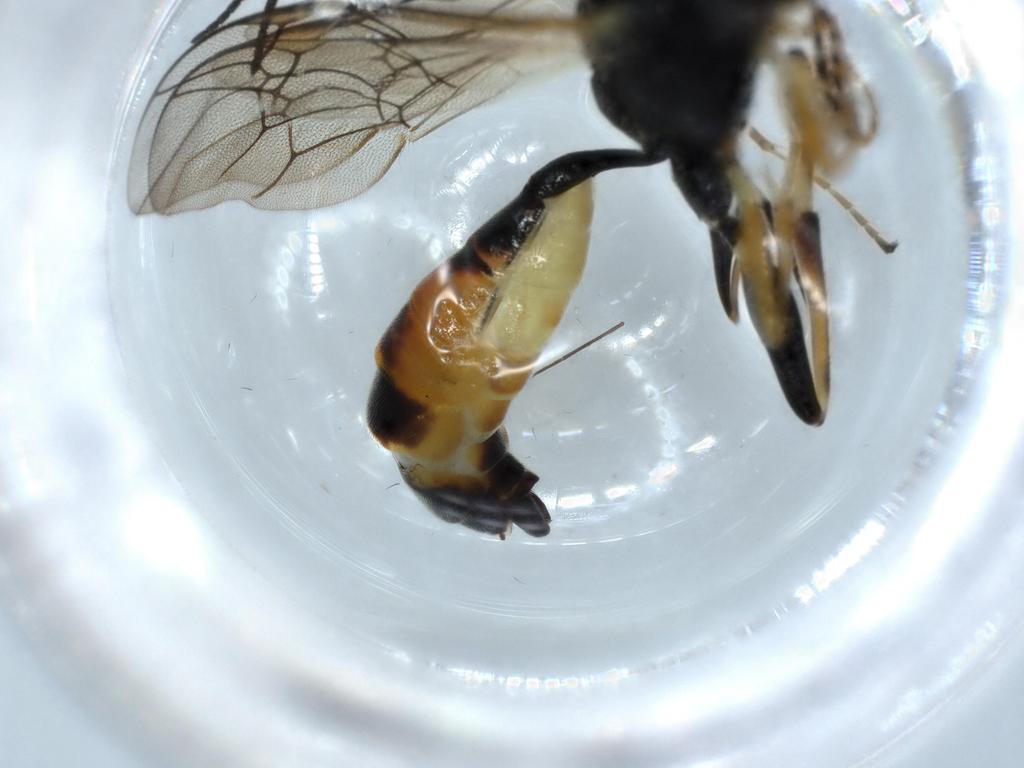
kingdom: Animalia
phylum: Arthropoda
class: Insecta
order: Hymenoptera
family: Ichneumonidae
